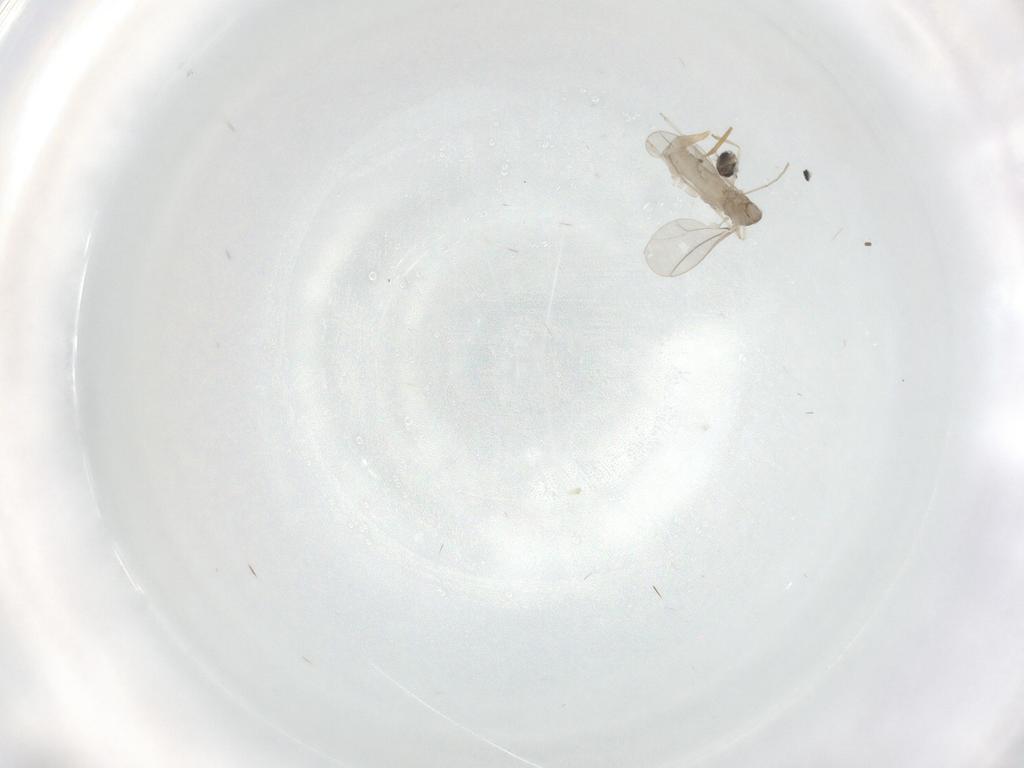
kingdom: Animalia
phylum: Arthropoda
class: Insecta
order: Diptera
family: Cecidomyiidae
